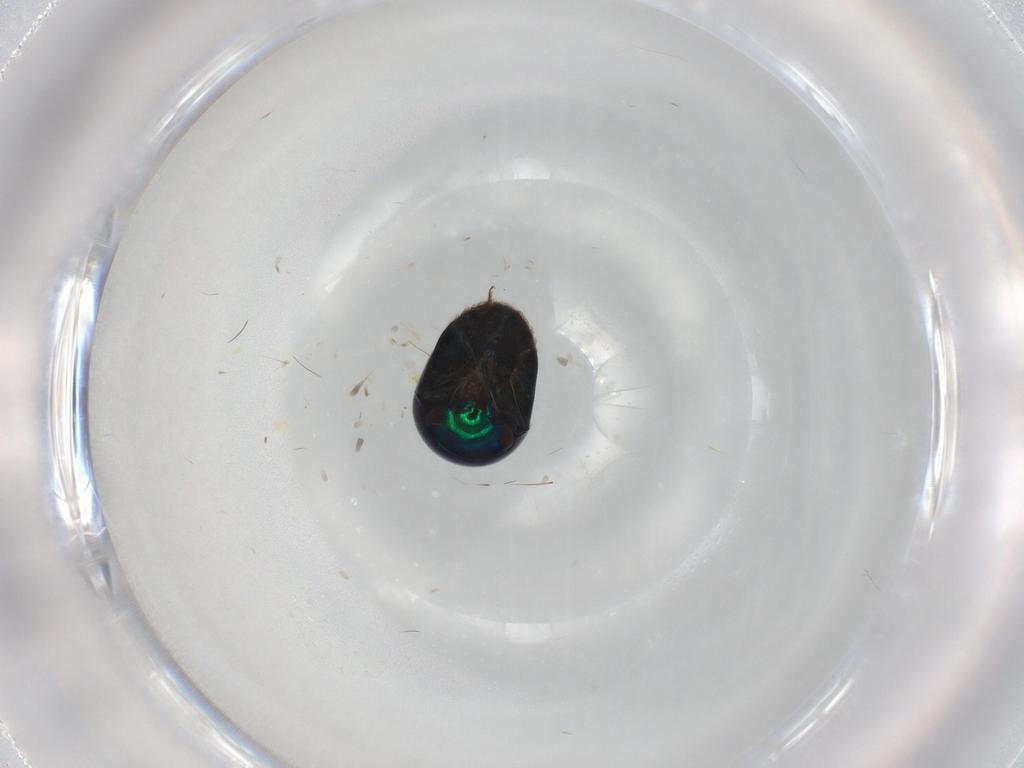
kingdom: Animalia
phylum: Arthropoda
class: Insecta
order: Coleoptera
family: Cybocephalidae
